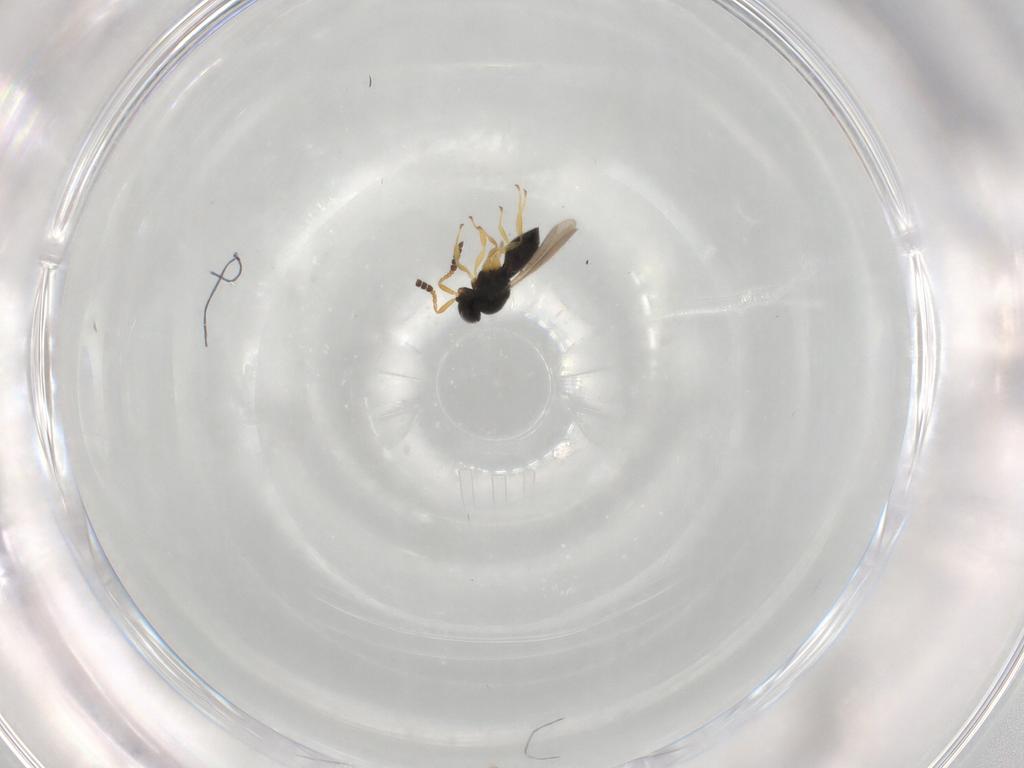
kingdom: Animalia
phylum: Arthropoda
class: Insecta
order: Hymenoptera
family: Scelionidae
